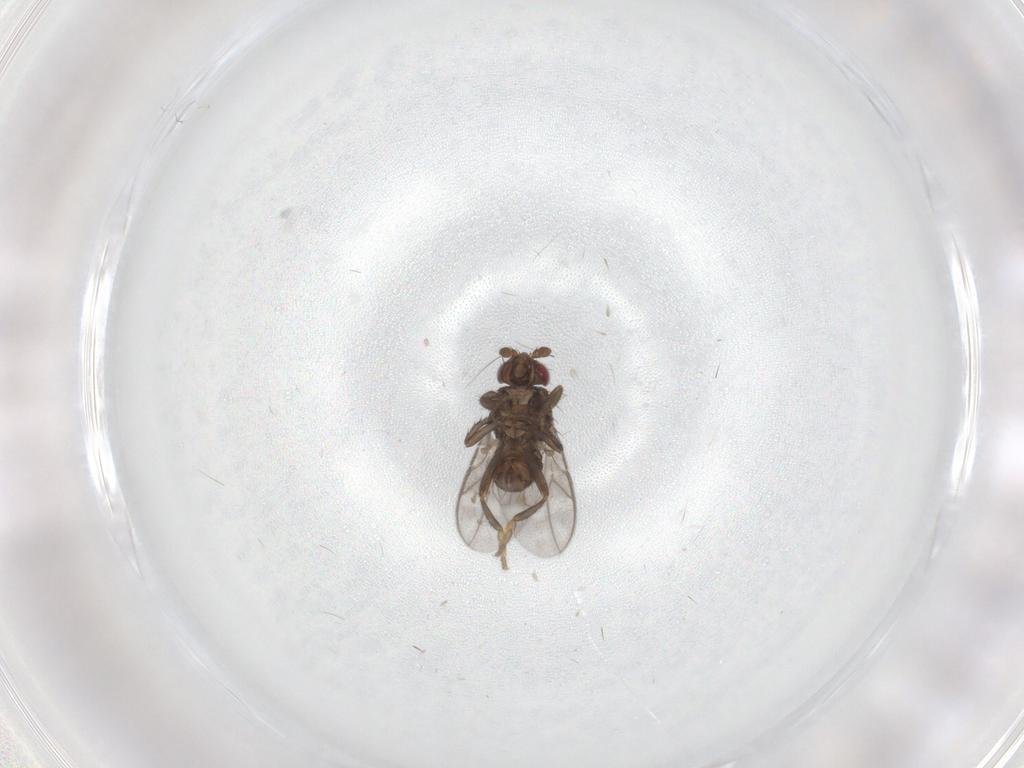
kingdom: Animalia
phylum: Arthropoda
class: Insecta
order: Diptera
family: Sphaeroceridae
